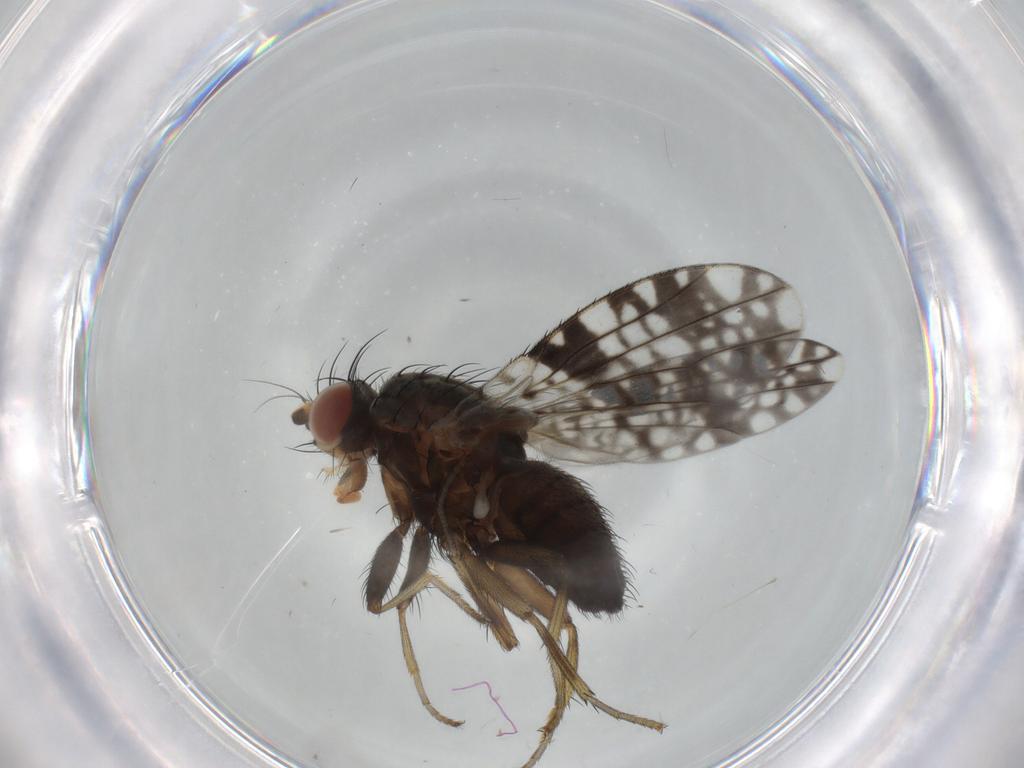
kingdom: Animalia
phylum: Arthropoda
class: Insecta
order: Diptera
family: Tephritidae
